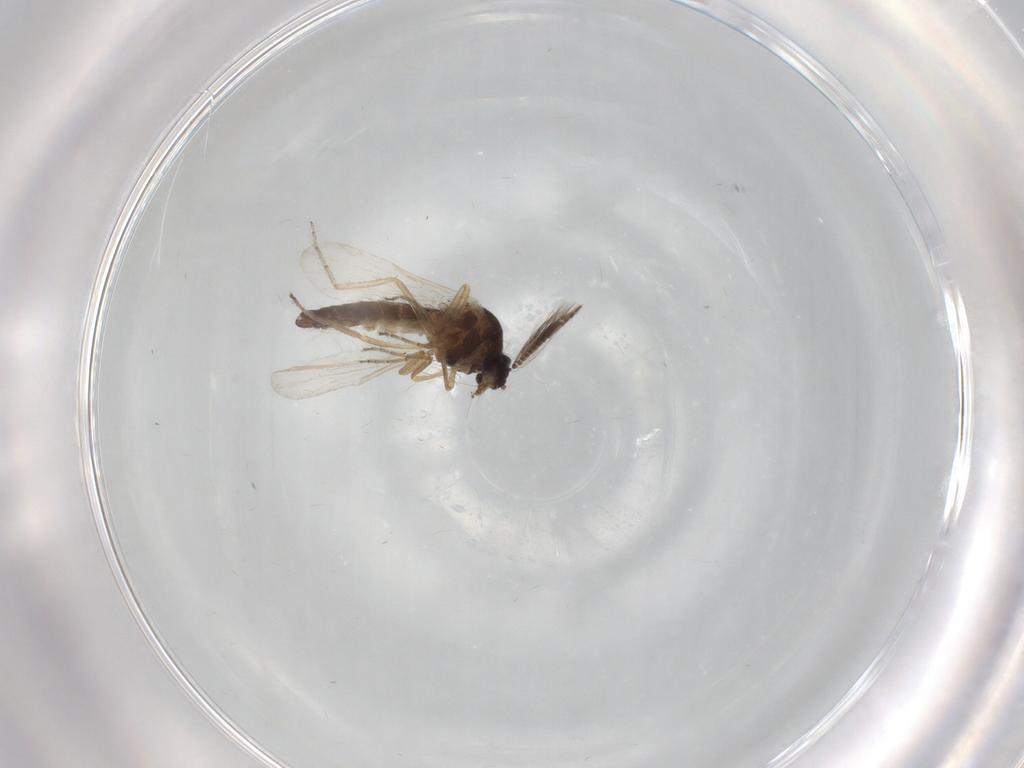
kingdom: Animalia
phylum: Arthropoda
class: Insecta
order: Diptera
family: Ceratopogonidae
